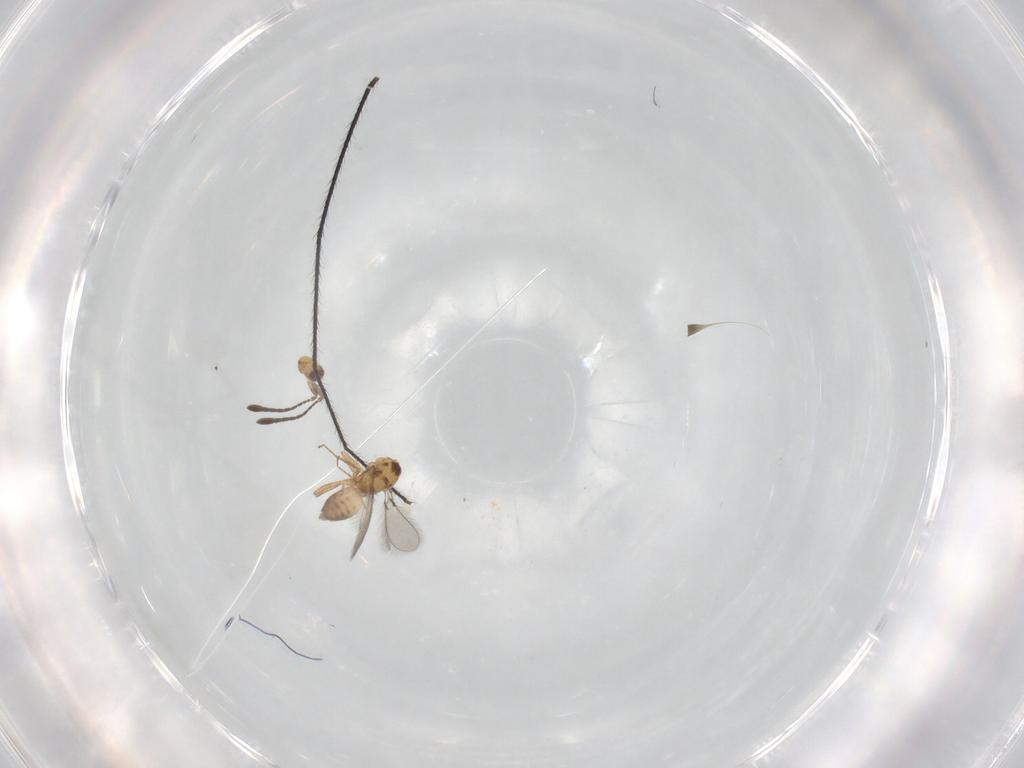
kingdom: Animalia
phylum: Arthropoda
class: Insecta
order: Hymenoptera
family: Mymaridae
